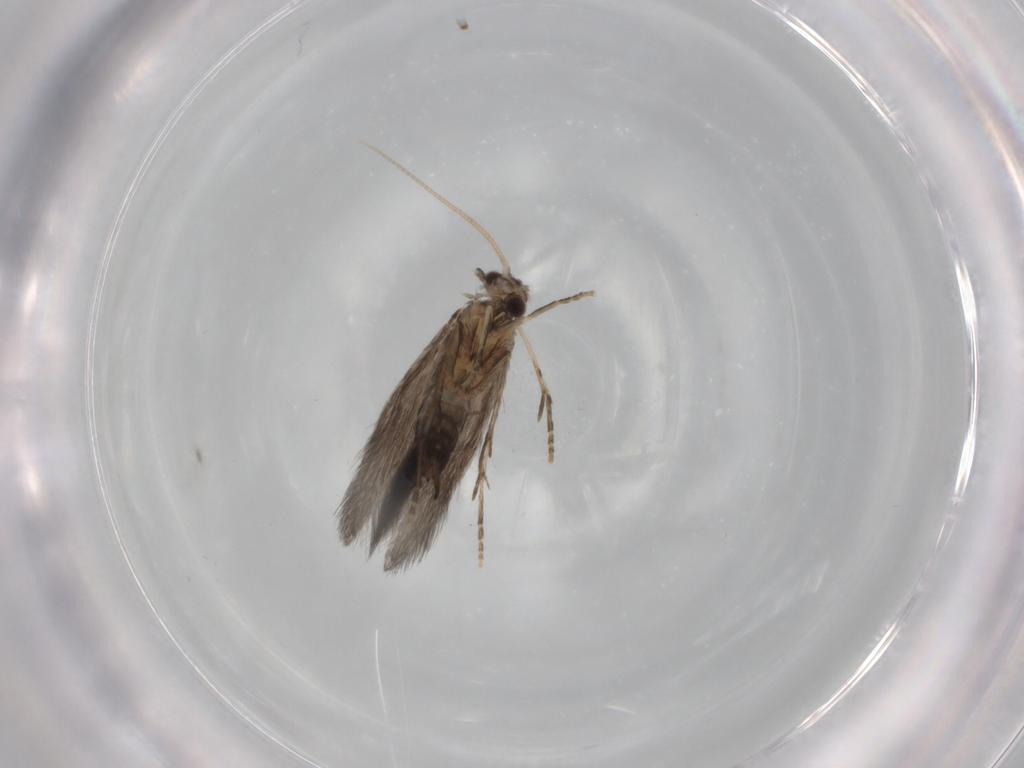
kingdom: Animalia
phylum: Arthropoda
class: Insecta
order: Trichoptera
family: Hydroptilidae
